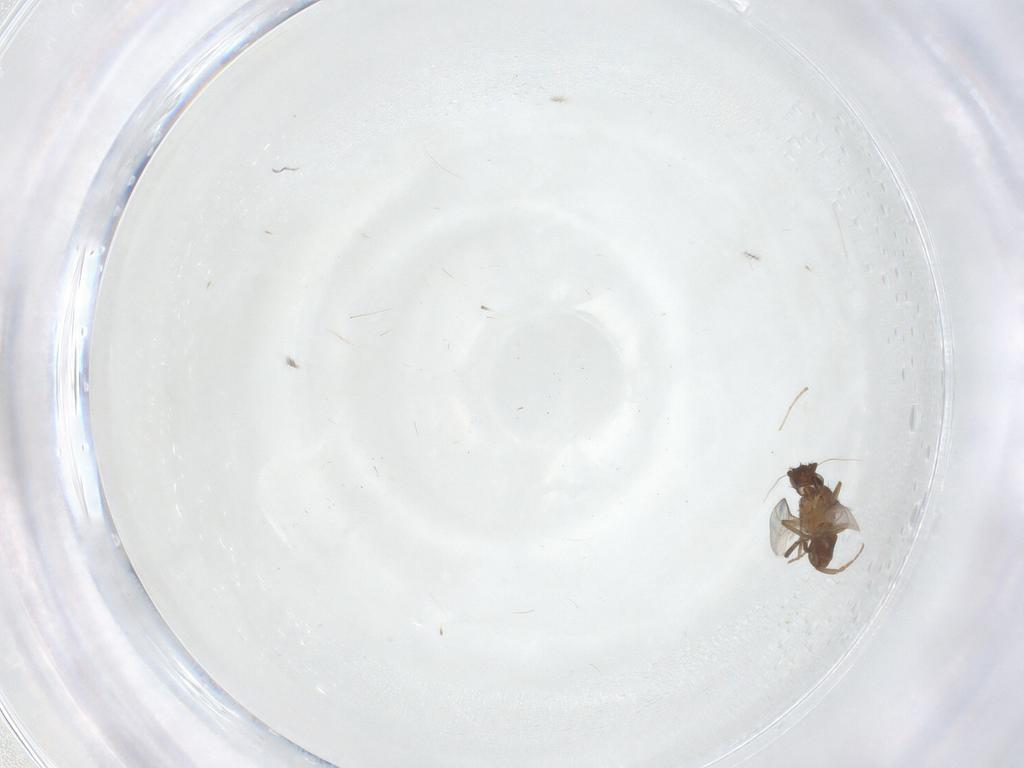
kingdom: Animalia
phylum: Arthropoda
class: Insecta
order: Diptera
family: Sphaeroceridae
